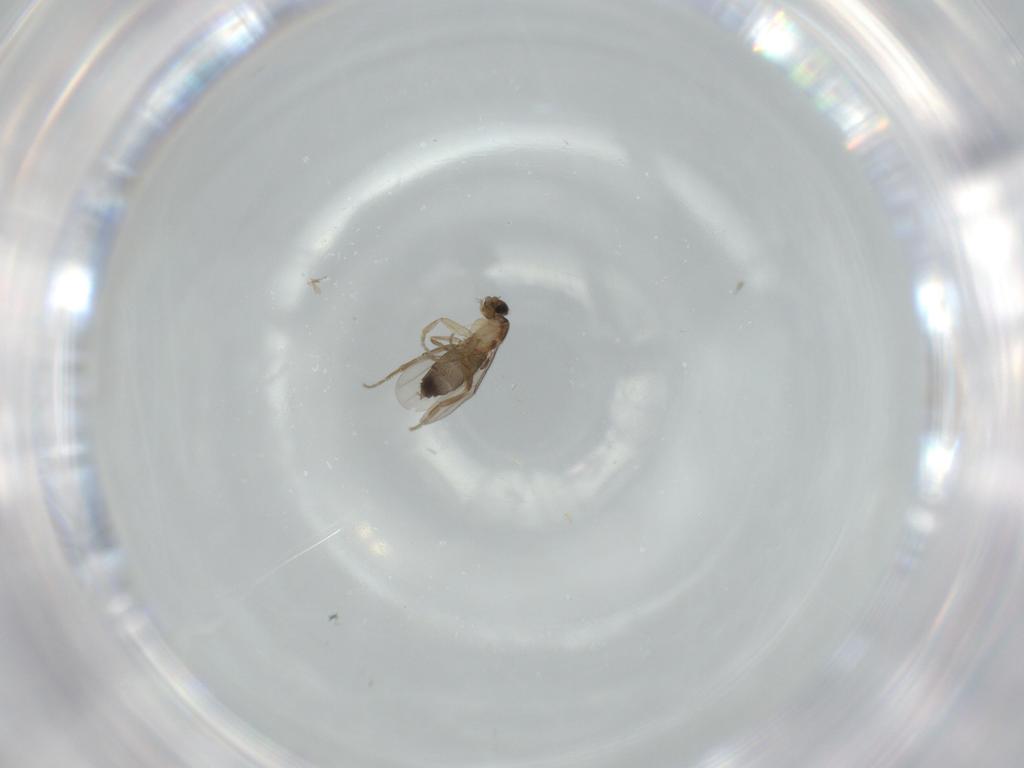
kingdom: Animalia
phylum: Arthropoda
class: Insecta
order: Diptera
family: Phoridae
